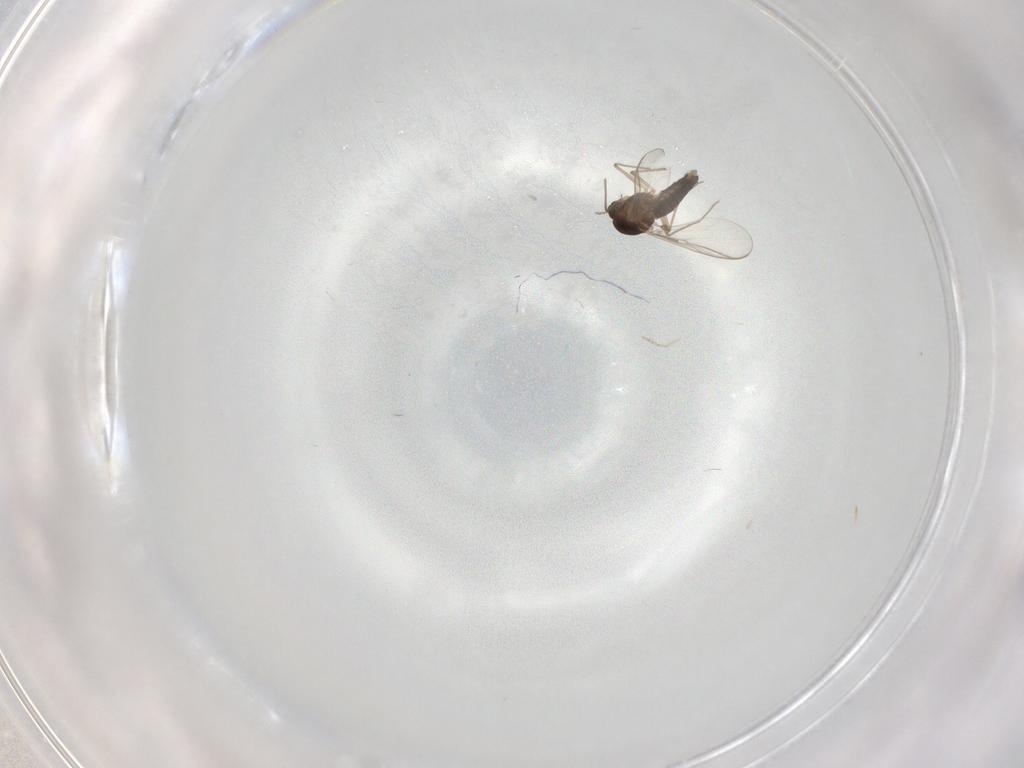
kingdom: Animalia
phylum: Arthropoda
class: Insecta
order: Diptera
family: Chironomidae
